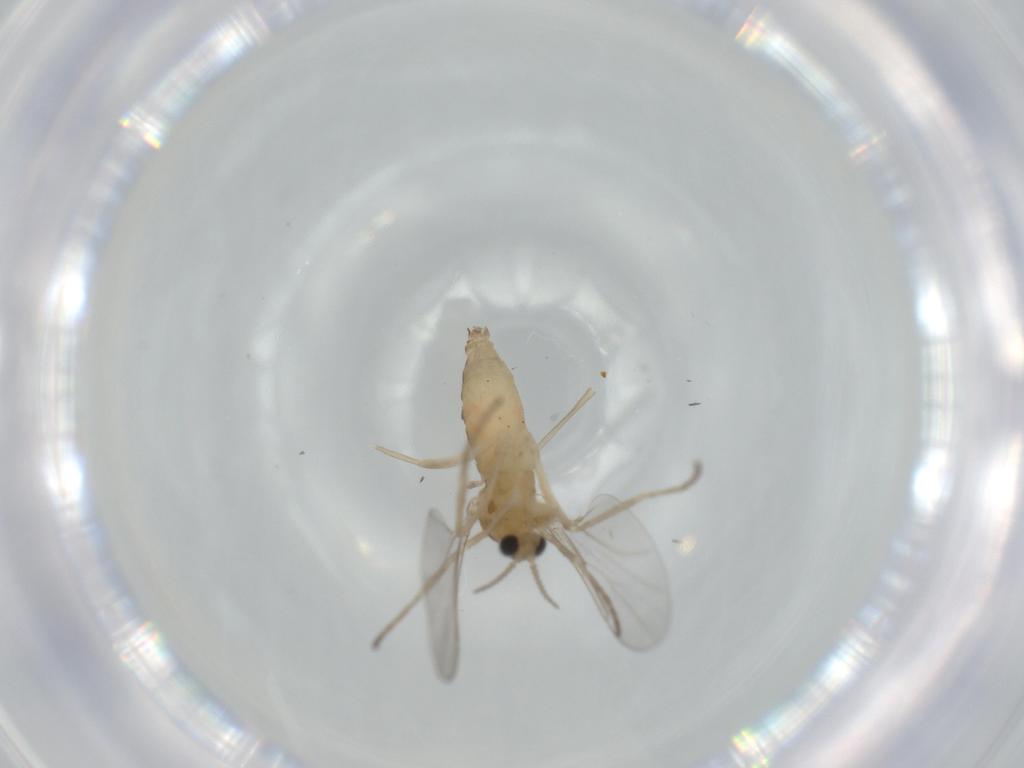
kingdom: Animalia
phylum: Arthropoda
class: Insecta
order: Diptera
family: Cecidomyiidae
